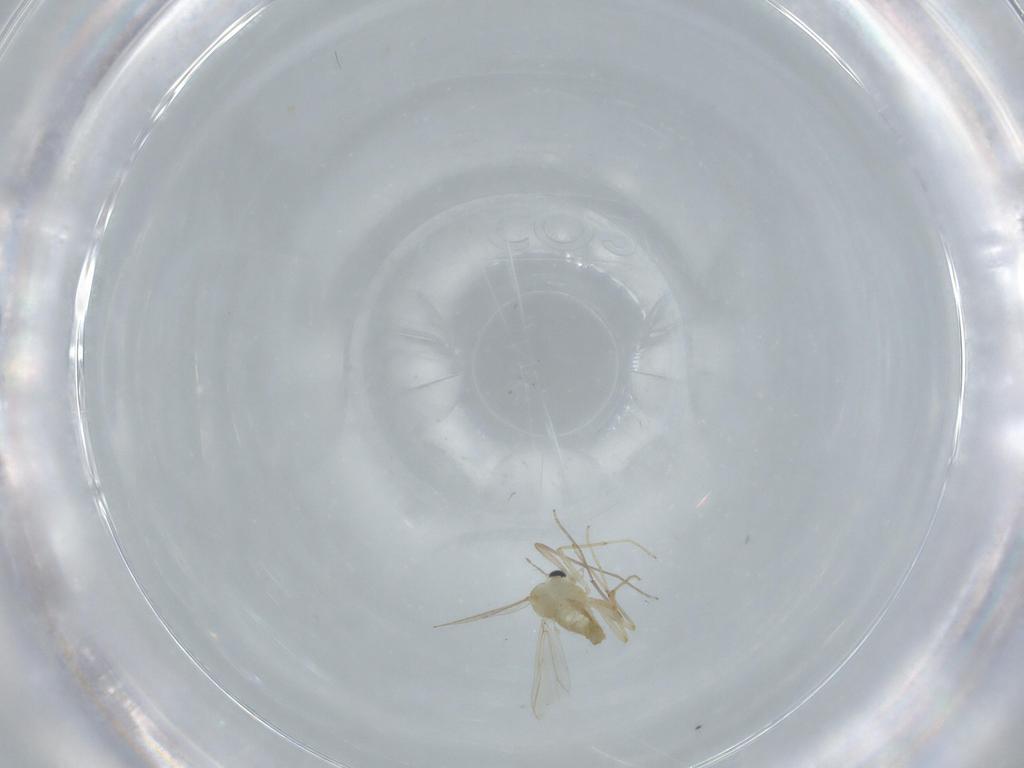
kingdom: Animalia
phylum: Arthropoda
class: Insecta
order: Diptera
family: Chironomidae
